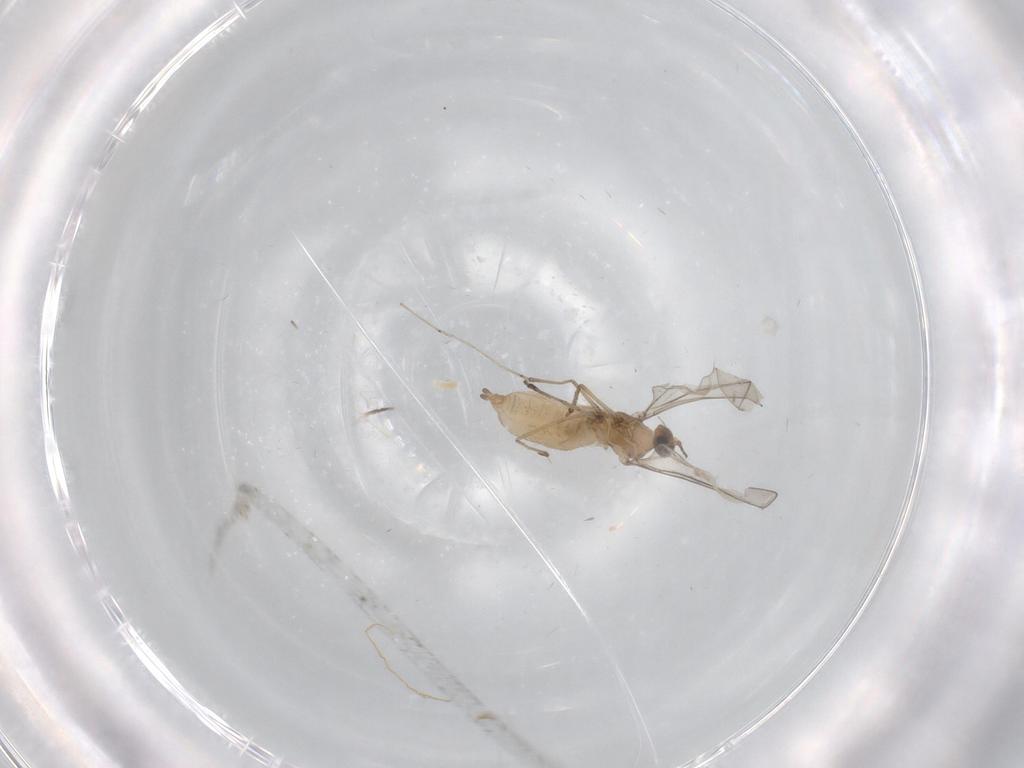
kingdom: Animalia
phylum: Arthropoda
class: Insecta
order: Diptera
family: Cecidomyiidae
